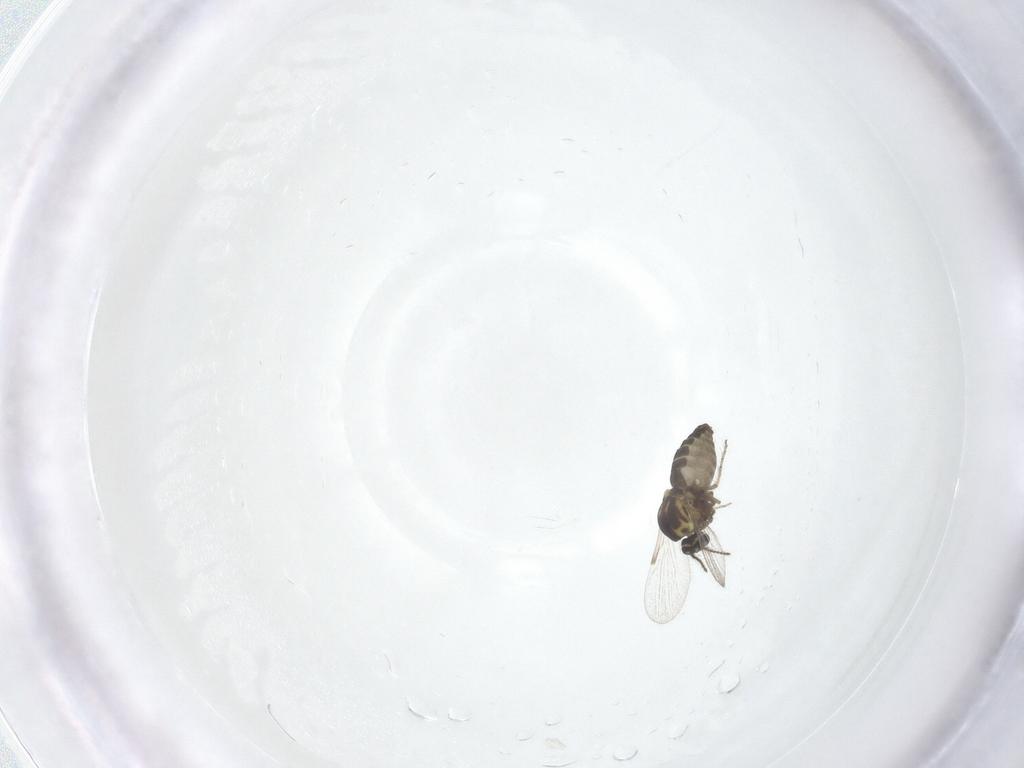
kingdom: Animalia
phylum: Arthropoda
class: Insecta
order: Diptera
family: Ceratopogonidae
